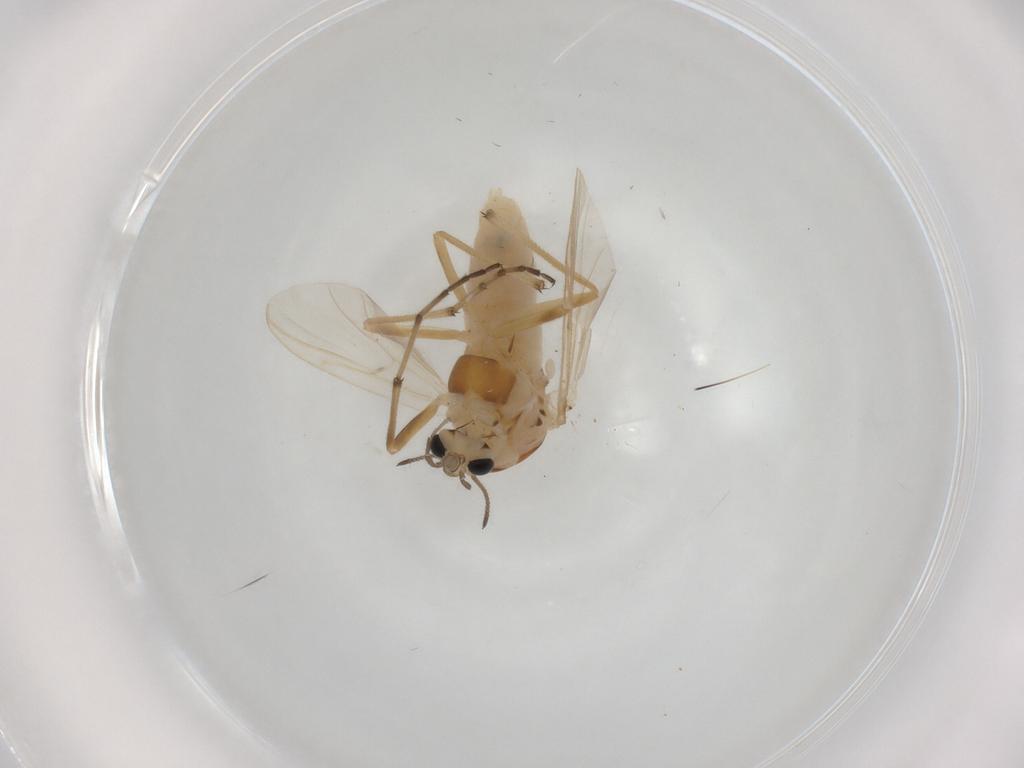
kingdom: Animalia
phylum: Arthropoda
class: Insecta
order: Diptera
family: Chironomidae
